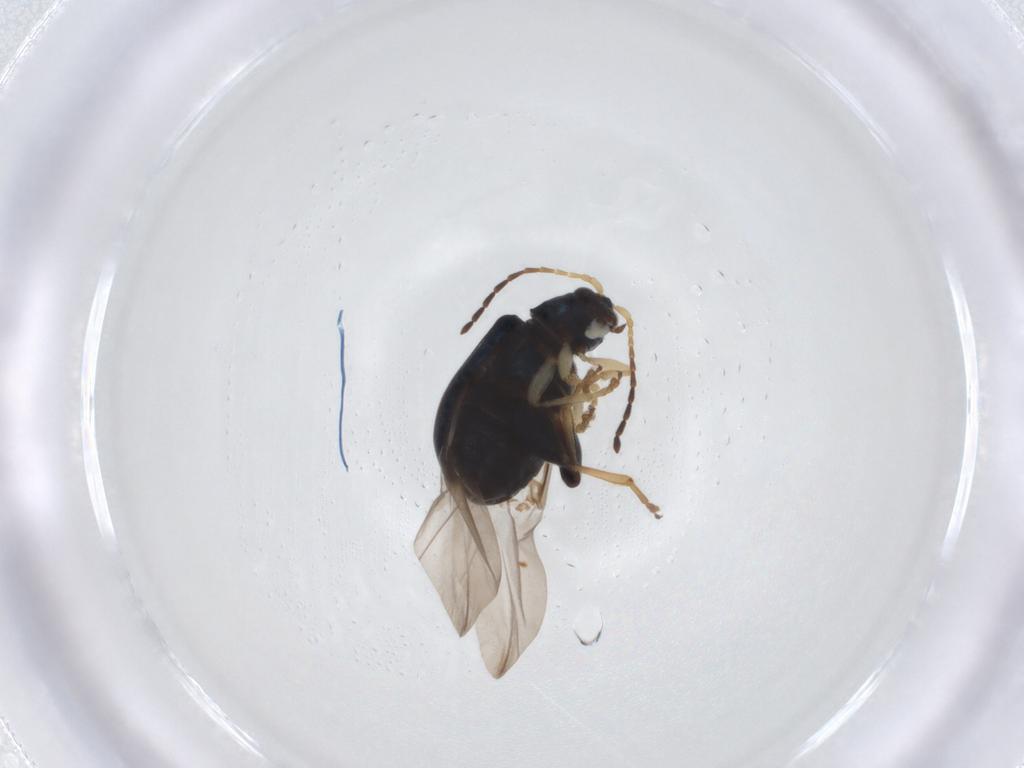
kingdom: Animalia
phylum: Arthropoda
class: Insecta
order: Coleoptera
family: Chrysomelidae
